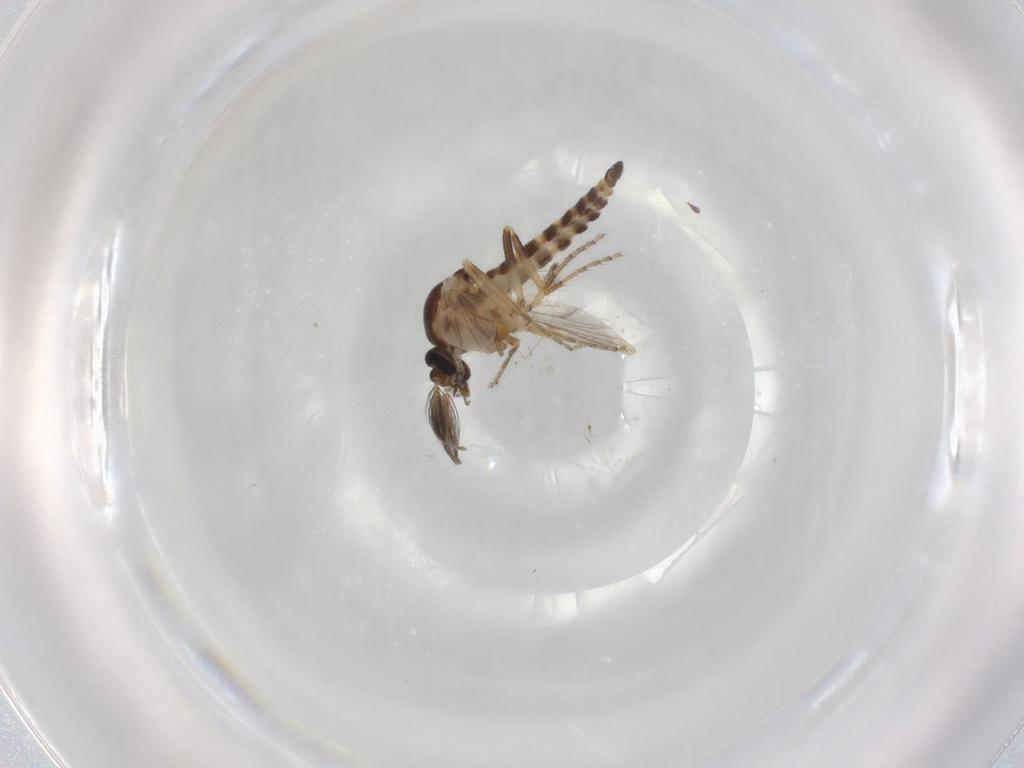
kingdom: Animalia
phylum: Arthropoda
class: Insecta
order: Diptera
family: Ceratopogonidae
